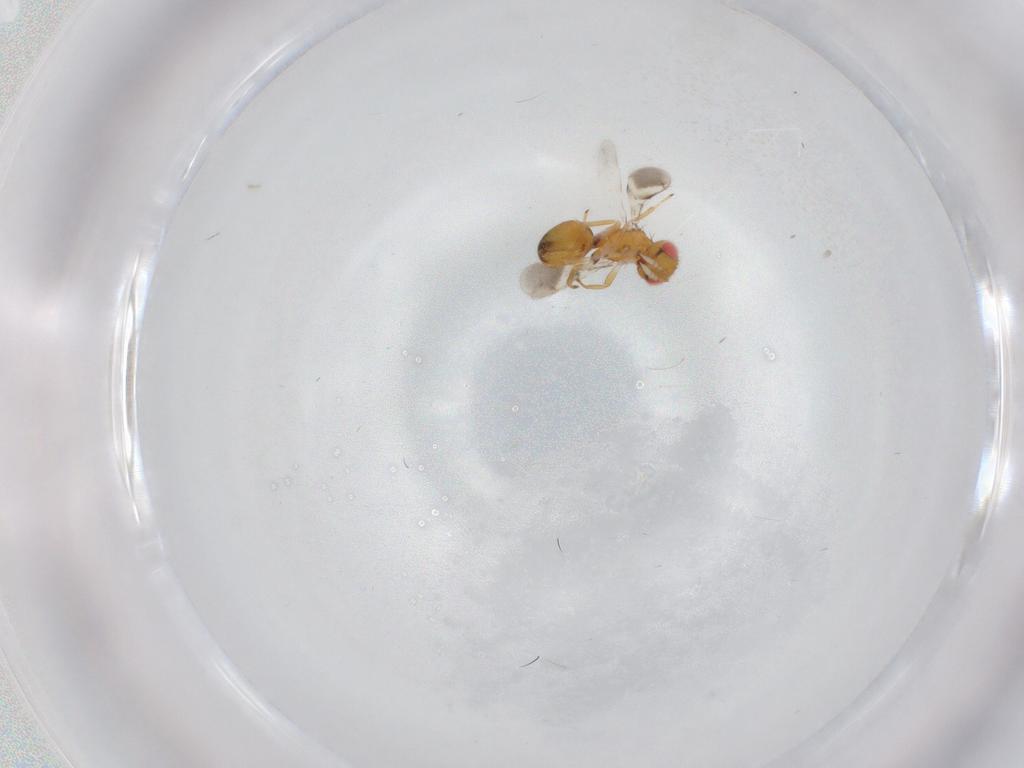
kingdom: Animalia
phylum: Arthropoda
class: Insecta
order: Hymenoptera
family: Eulophidae
